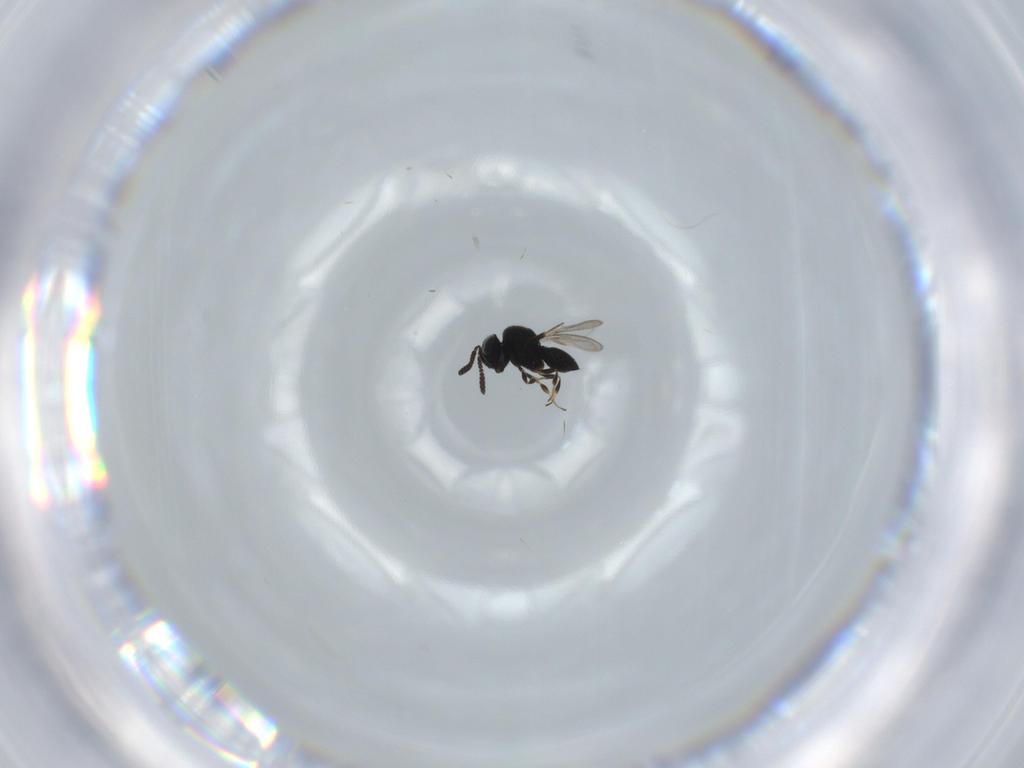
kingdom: Animalia
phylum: Arthropoda
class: Insecta
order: Hymenoptera
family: Scelionidae
